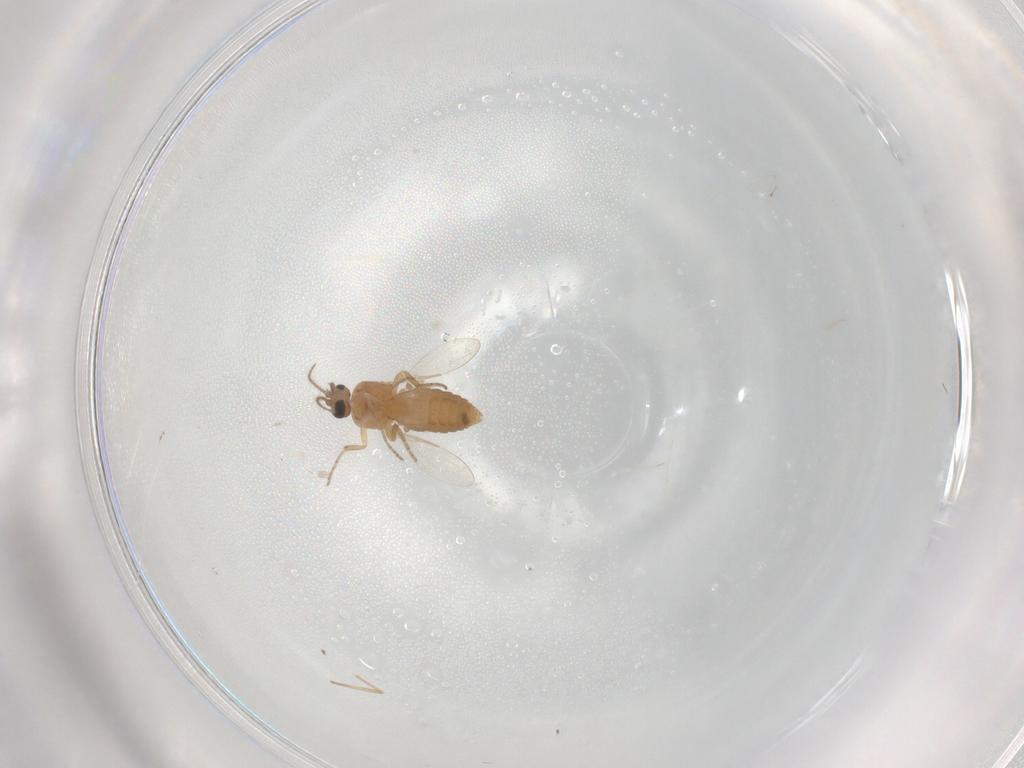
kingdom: Animalia
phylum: Arthropoda
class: Insecta
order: Diptera
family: Ceratopogonidae
